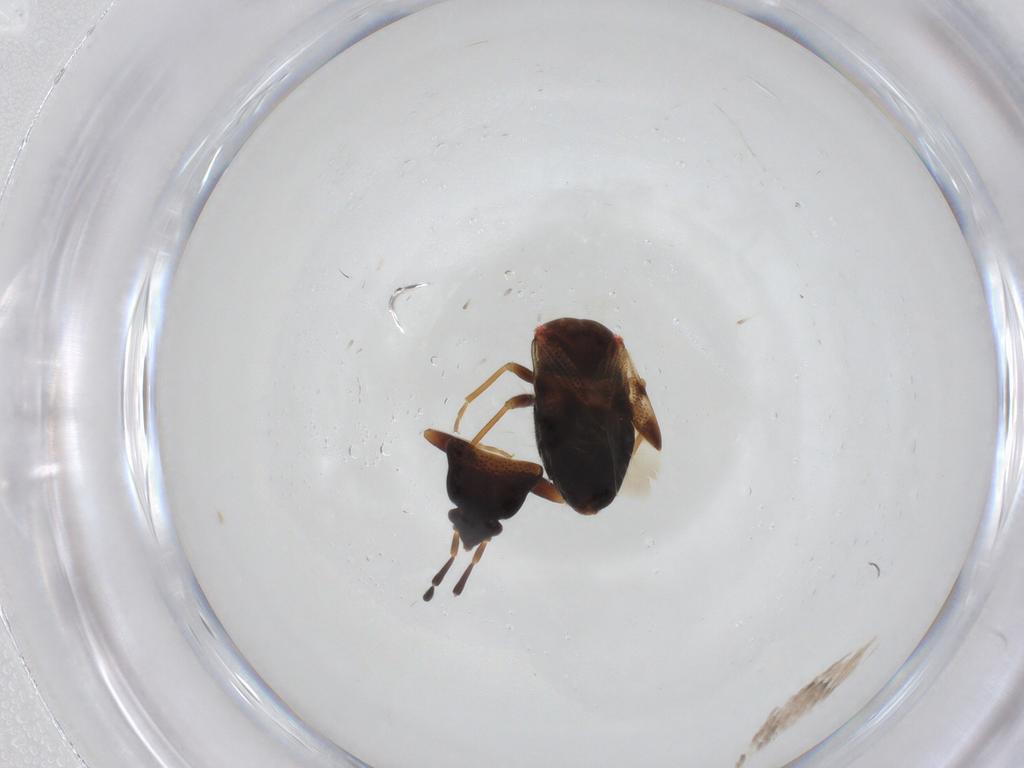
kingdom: Animalia
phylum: Arthropoda
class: Insecta
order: Hemiptera
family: Rhyparochromidae
